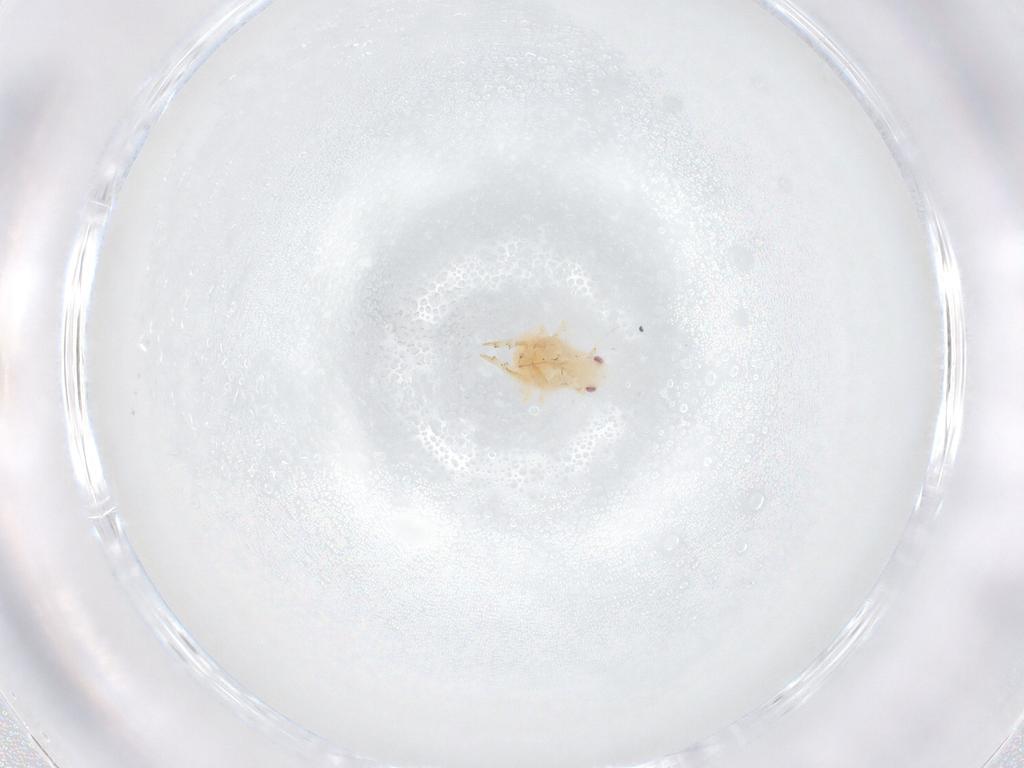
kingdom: Animalia
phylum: Arthropoda
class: Insecta
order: Hemiptera
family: Flatidae
